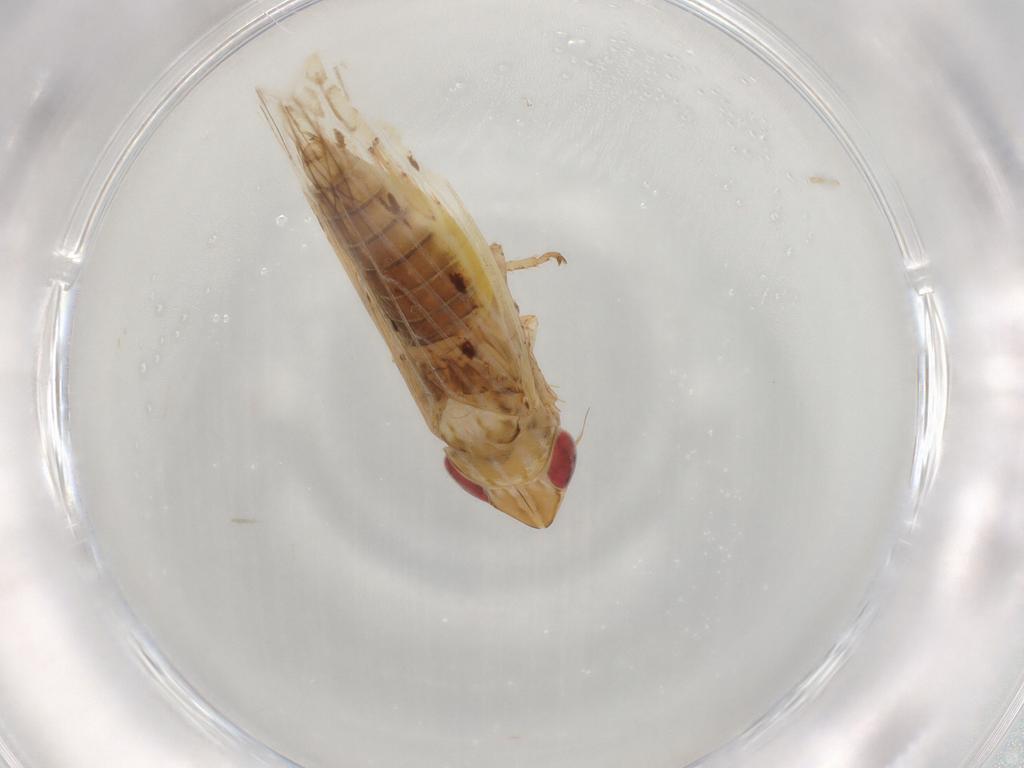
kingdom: Animalia
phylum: Arthropoda
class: Insecta
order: Hemiptera
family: Cicadellidae
